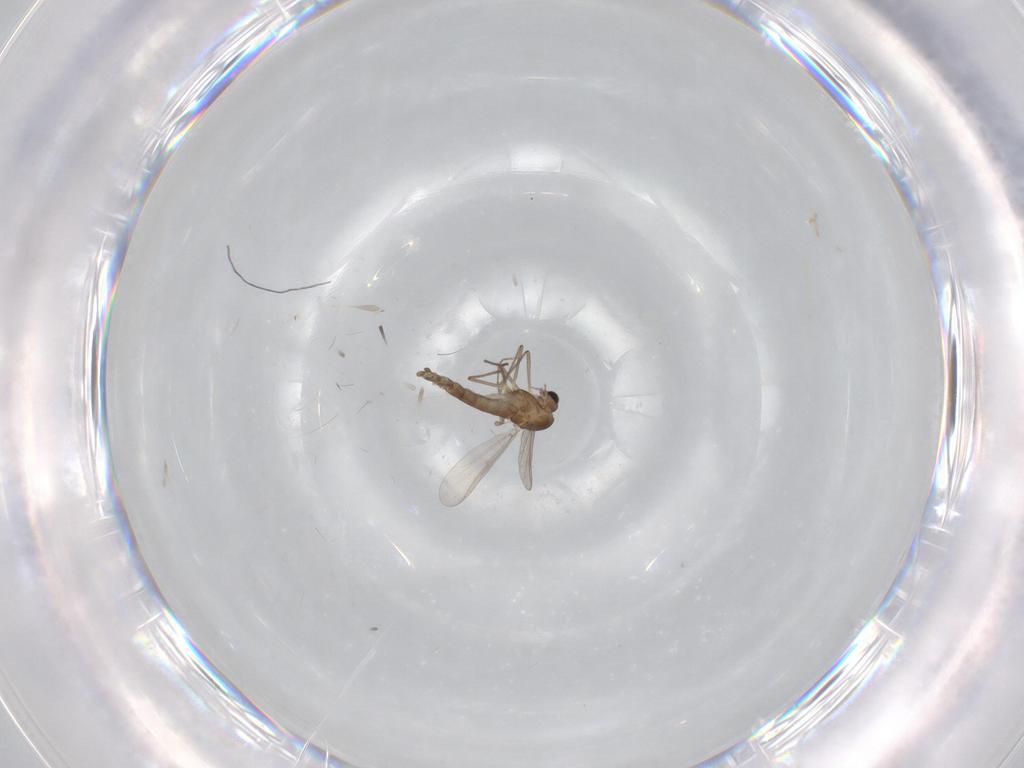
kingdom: Animalia
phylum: Arthropoda
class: Insecta
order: Diptera
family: Chironomidae
